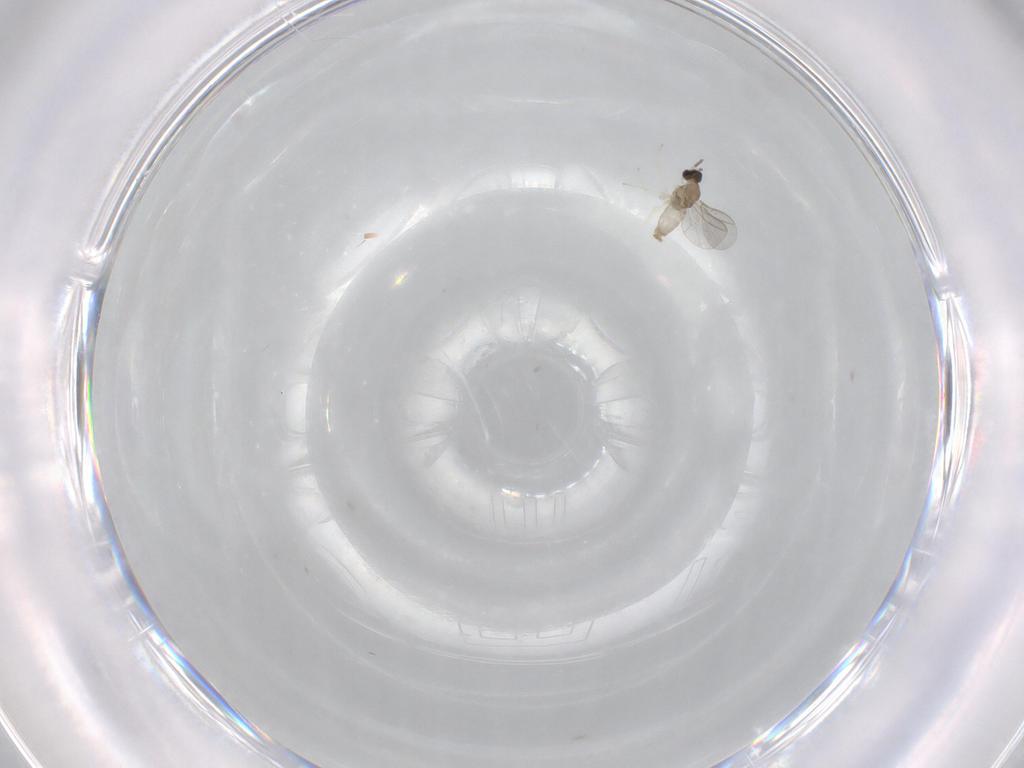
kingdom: Animalia
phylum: Arthropoda
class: Insecta
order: Diptera
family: Cecidomyiidae
